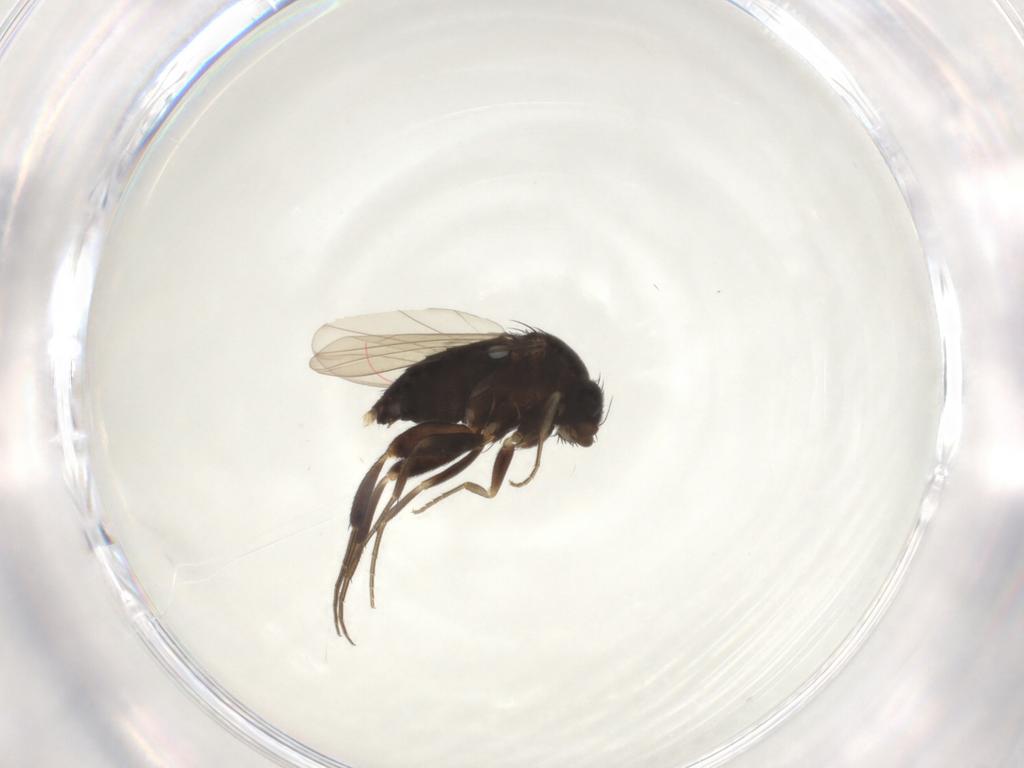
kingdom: Animalia
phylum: Arthropoda
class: Insecta
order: Diptera
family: Phoridae
